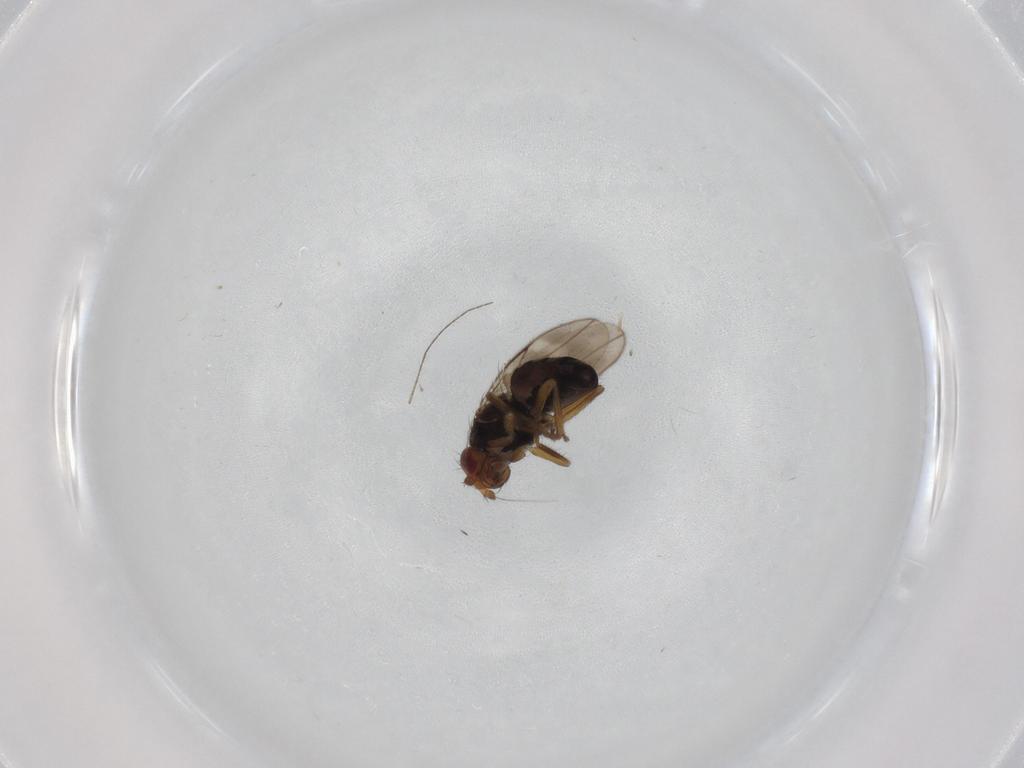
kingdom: Animalia
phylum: Arthropoda
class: Insecta
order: Diptera
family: Sphaeroceridae
